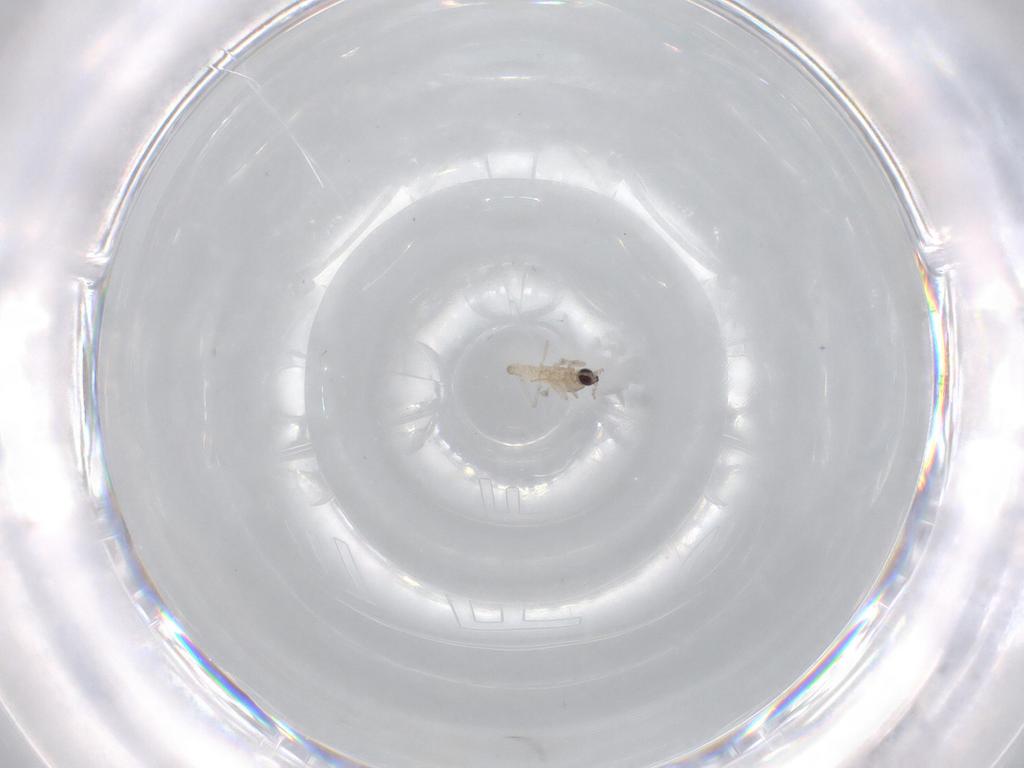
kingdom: Animalia
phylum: Arthropoda
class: Insecta
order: Diptera
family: Cecidomyiidae
